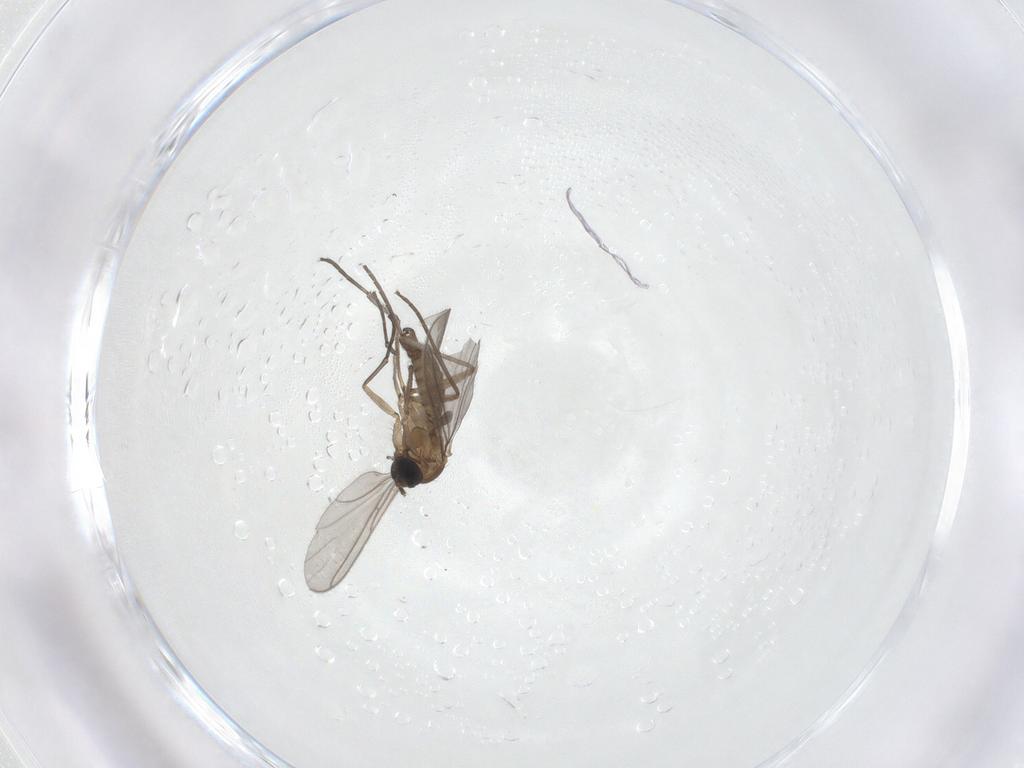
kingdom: Animalia
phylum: Arthropoda
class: Insecta
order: Diptera
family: Sciaridae
